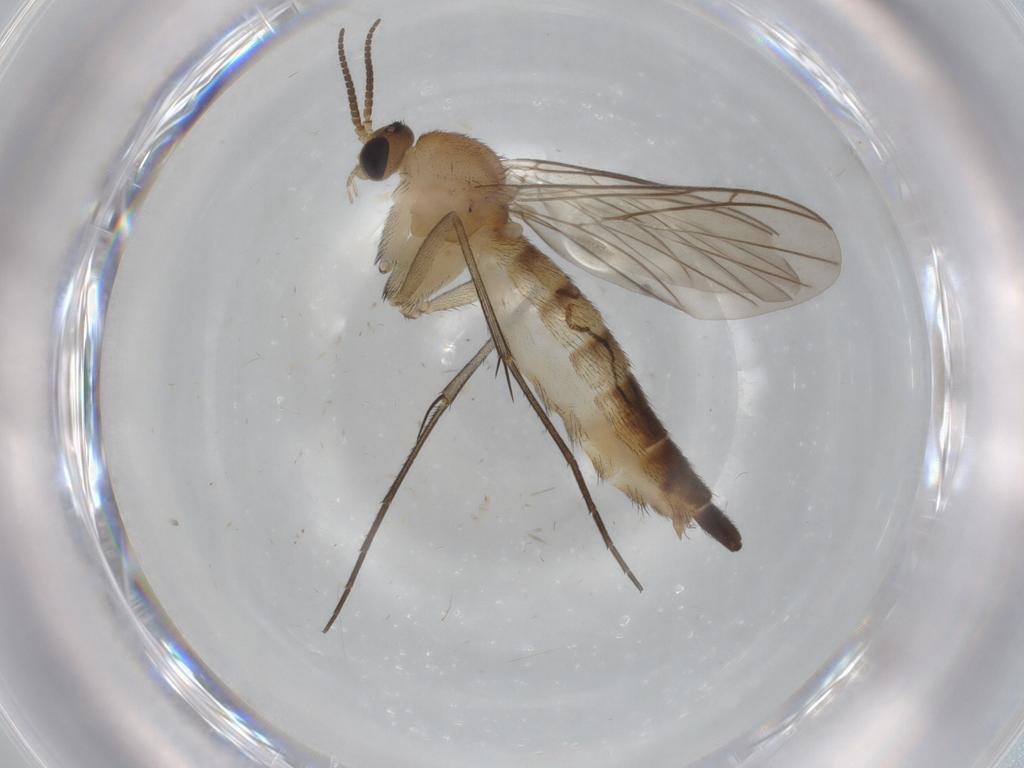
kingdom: Animalia
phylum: Arthropoda
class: Insecta
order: Diptera
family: Keroplatidae
